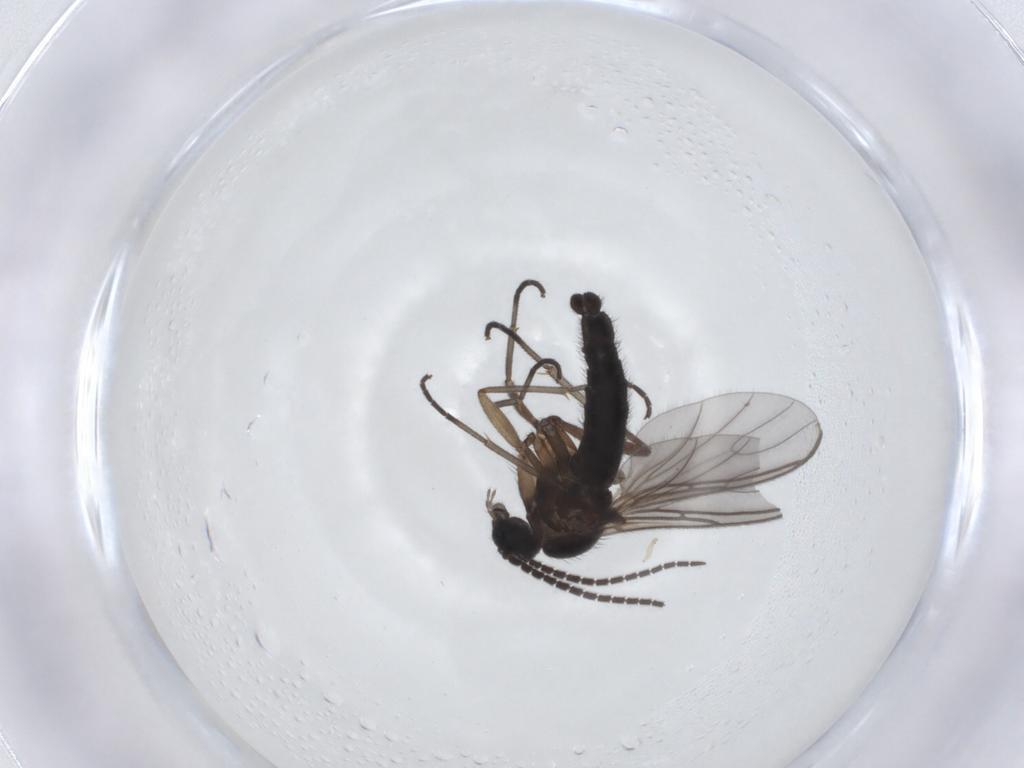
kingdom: Animalia
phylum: Arthropoda
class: Insecta
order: Diptera
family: Sciaridae
